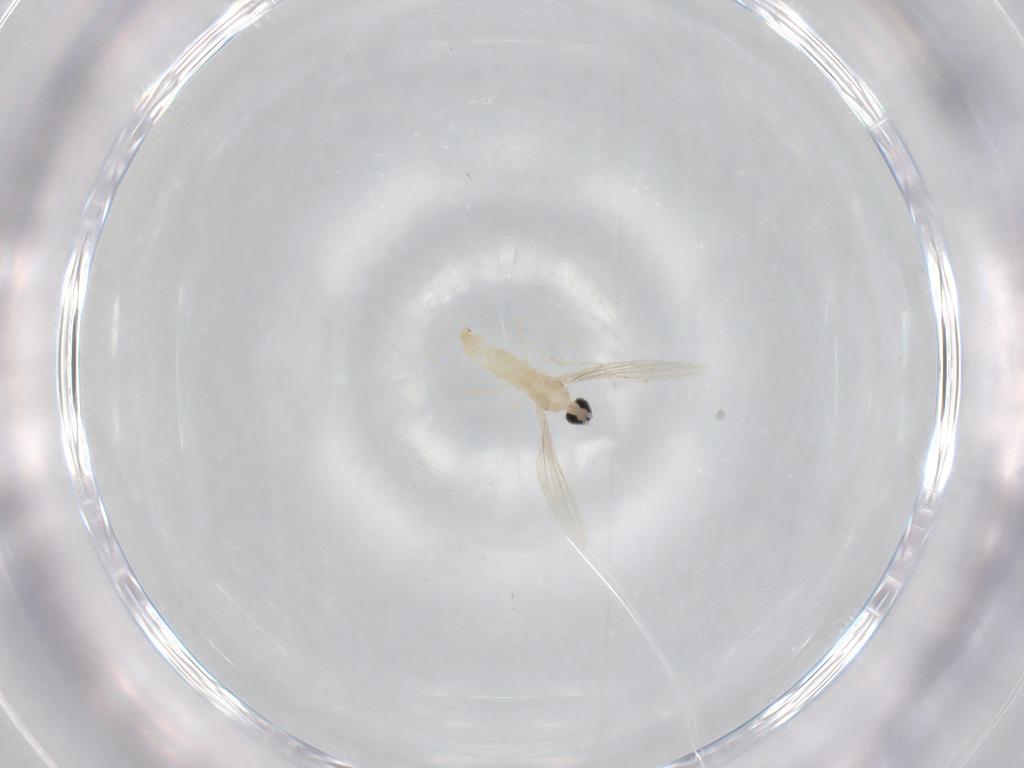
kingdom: Animalia
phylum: Arthropoda
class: Insecta
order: Diptera
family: Cecidomyiidae
